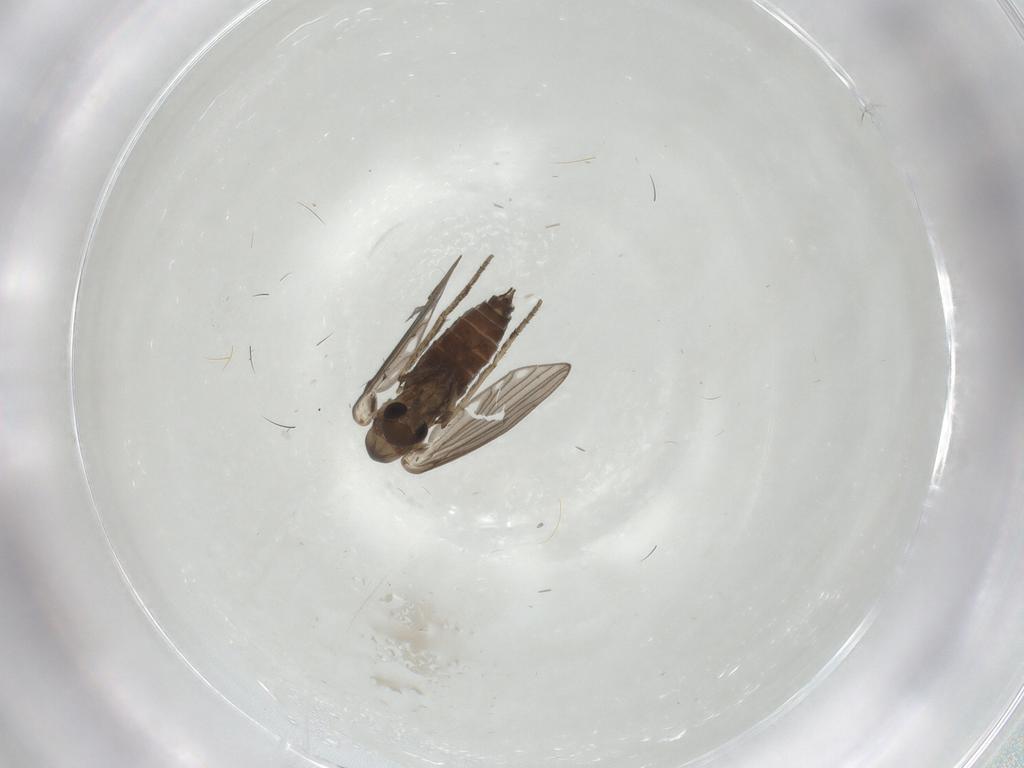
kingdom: Animalia
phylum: Arthropoda
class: Insecta
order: Diptera
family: Psychodidae
